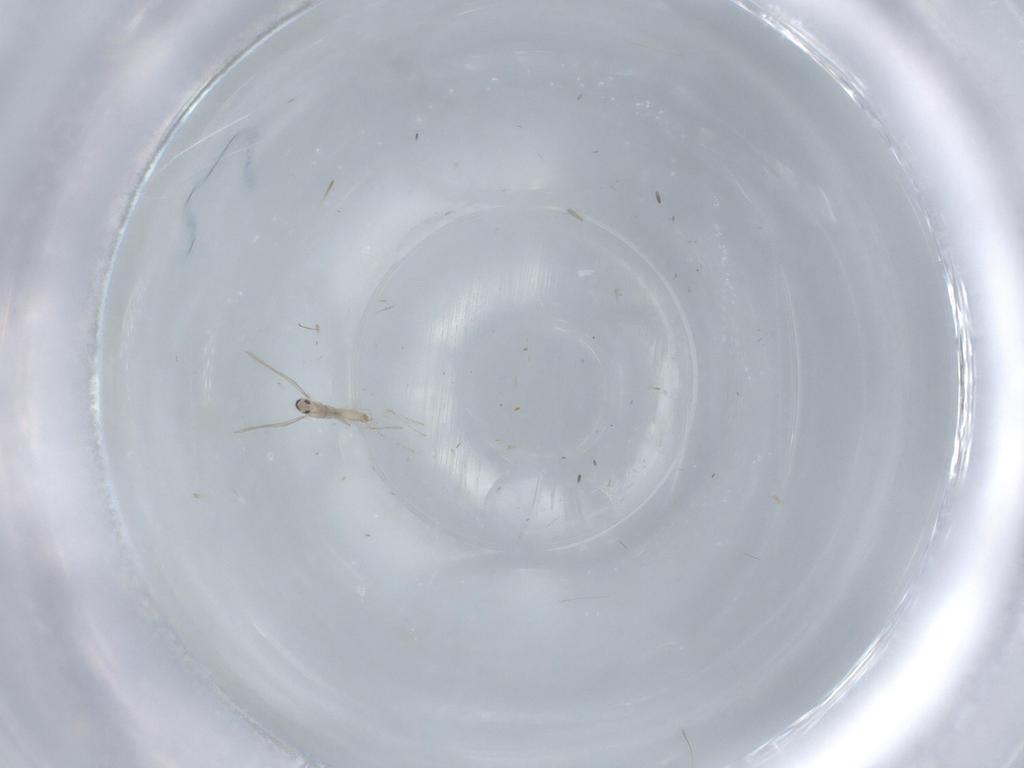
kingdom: Animalia
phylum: Arthropoda
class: Insecta
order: Diptera
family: Cecidomyiidae
